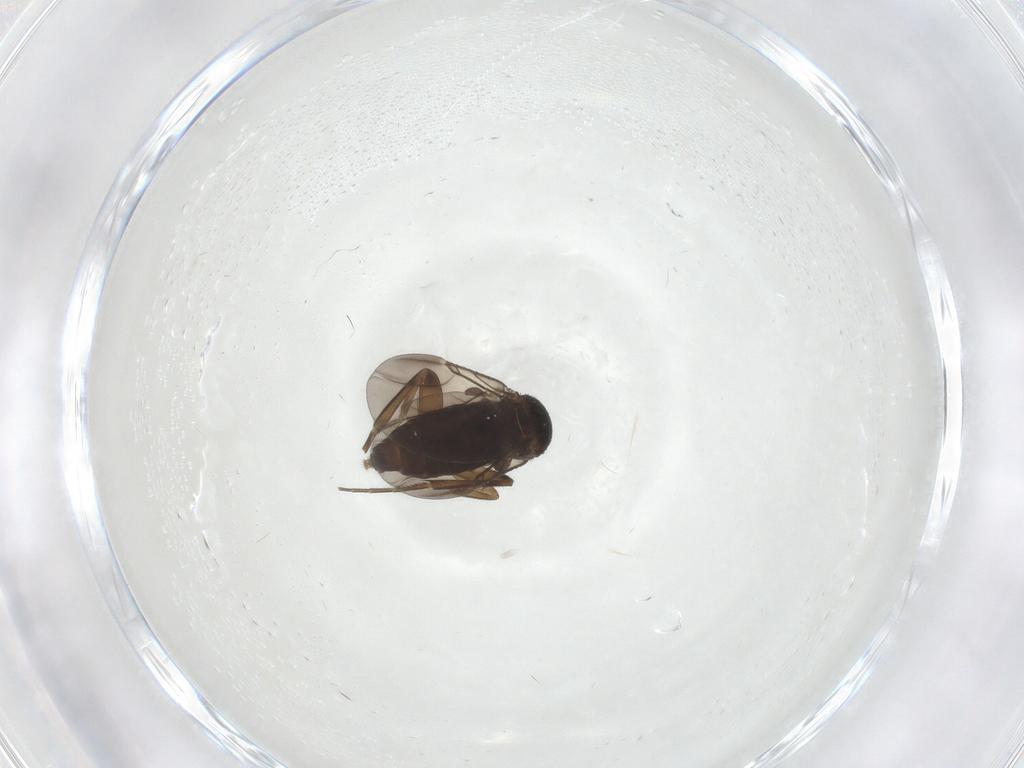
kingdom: Animalia
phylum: Arthropoda
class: Insecta
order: Diptera
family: Phoridae
